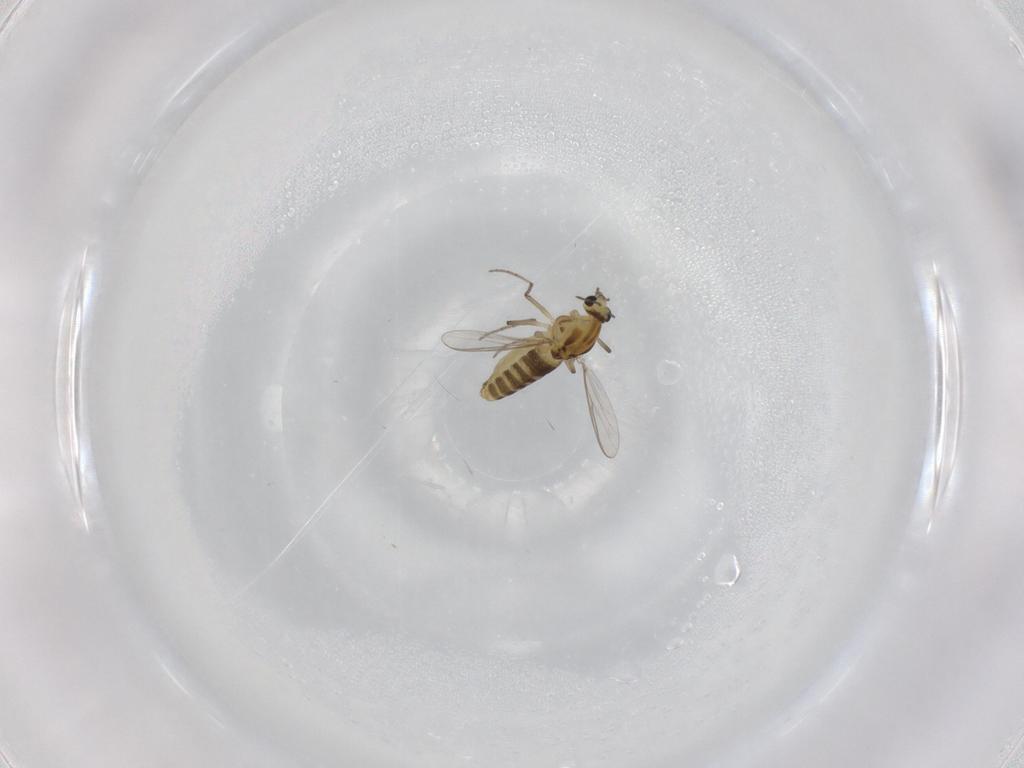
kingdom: Animalia
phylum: Arthropoda
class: Insecta
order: Diptera
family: Chironomidae
